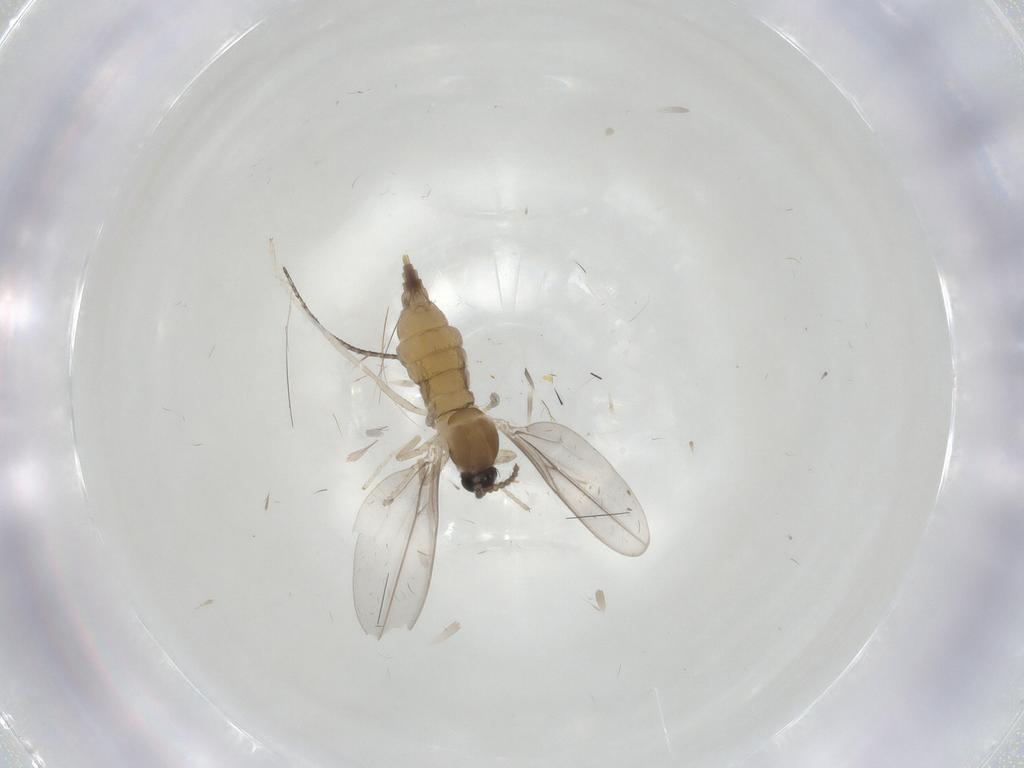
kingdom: Animalia
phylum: Arthropoda
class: Insecta
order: Diptera
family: Cecidomyiidae
